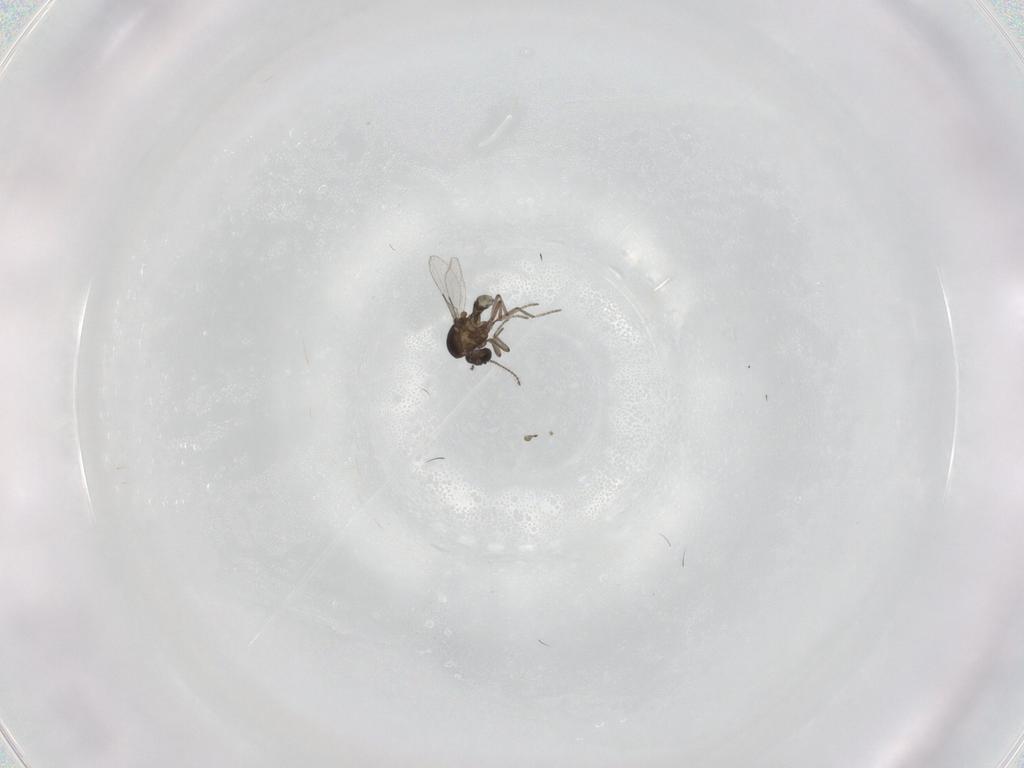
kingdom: Animalia
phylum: Arthropoda
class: Insecta
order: Diptera
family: Ceratopogonidae
